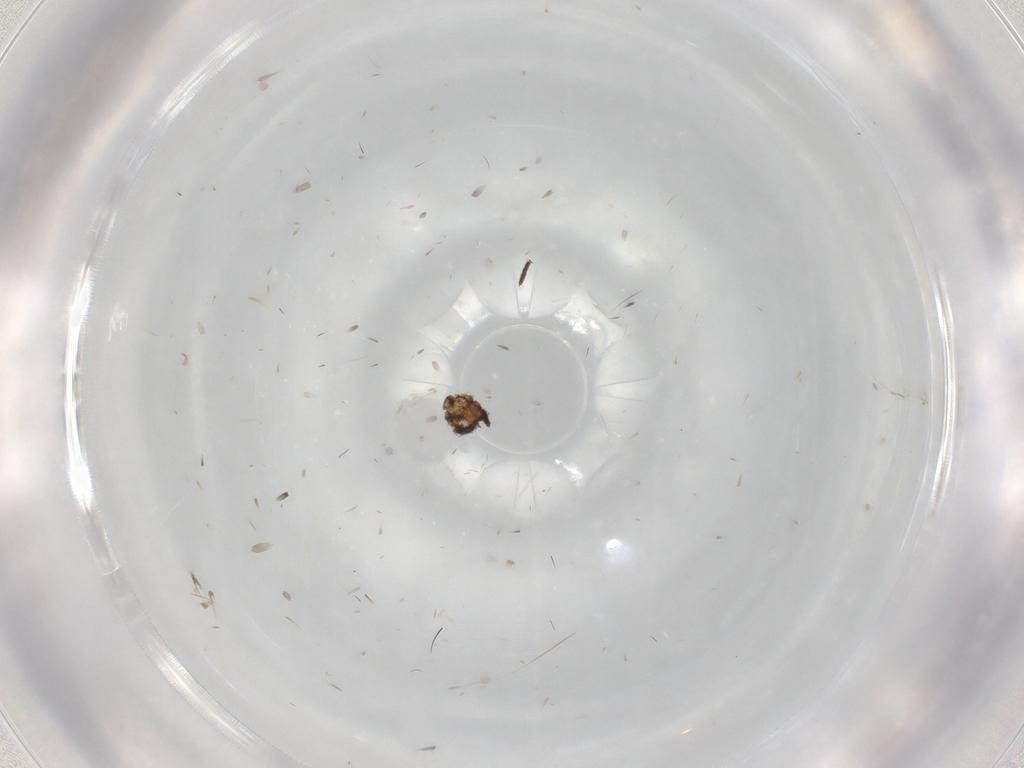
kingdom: Animalia
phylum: Arthropoda
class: Insecta
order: Diptera
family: Cecidomyiidae
